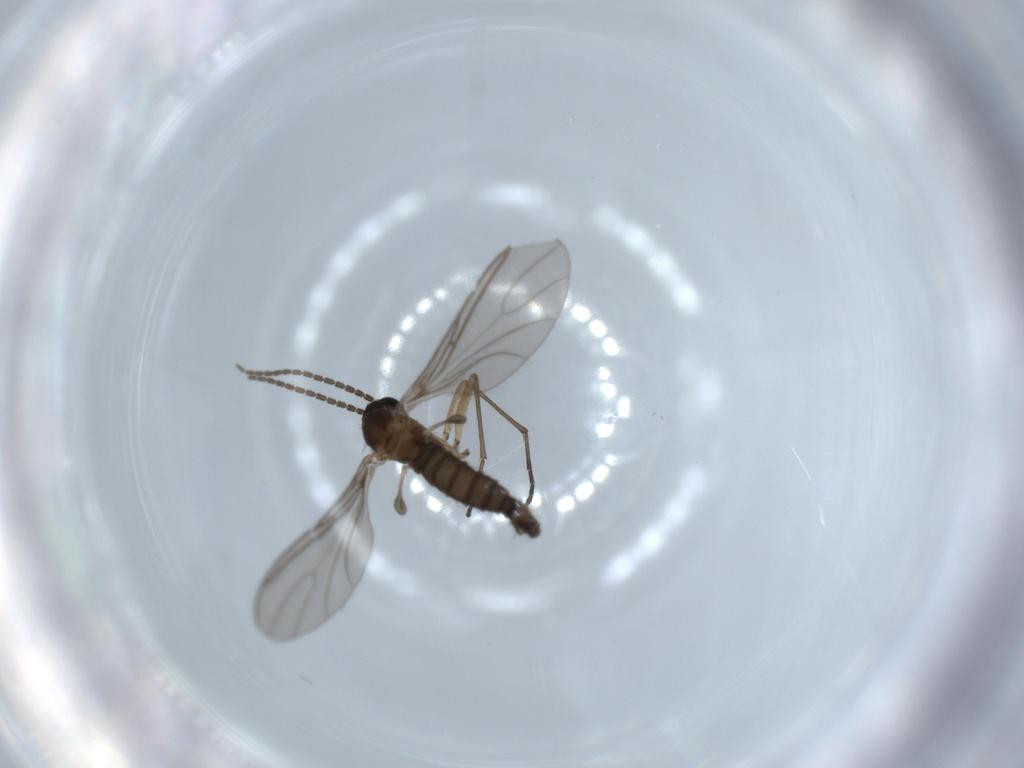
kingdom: Animalia
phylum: Arthropoda
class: Insecta
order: Diptera
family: Sciaridae
